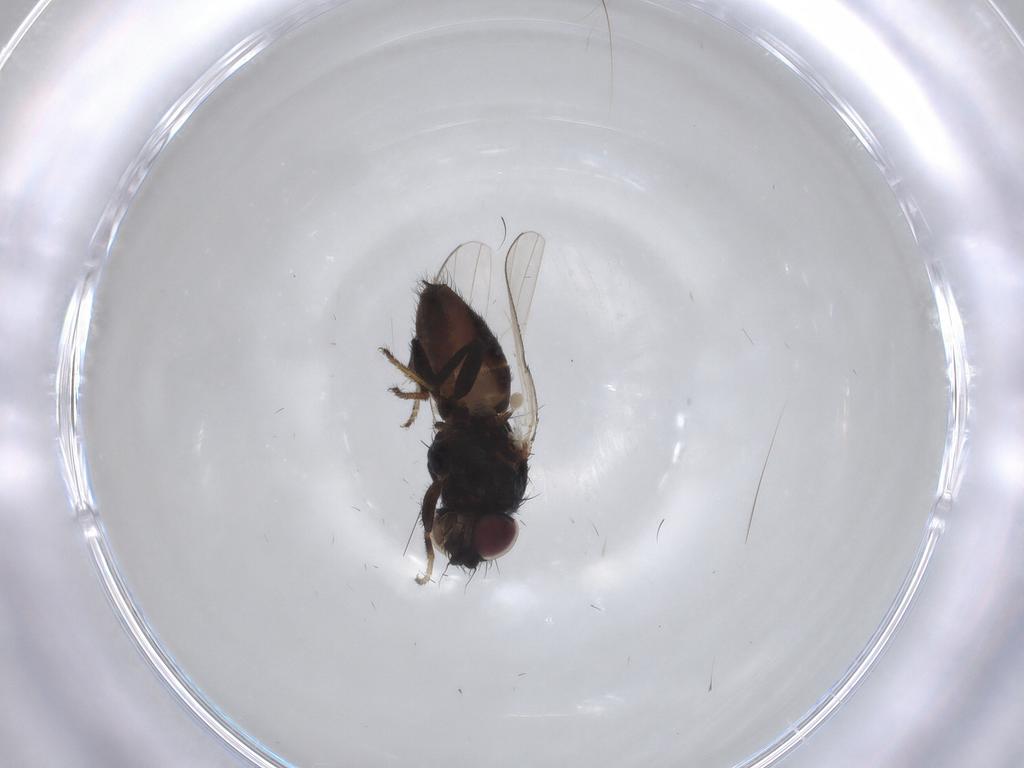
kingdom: Animalia
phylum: Arthropoda
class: Insecta
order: Diptera
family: Milichiidae
